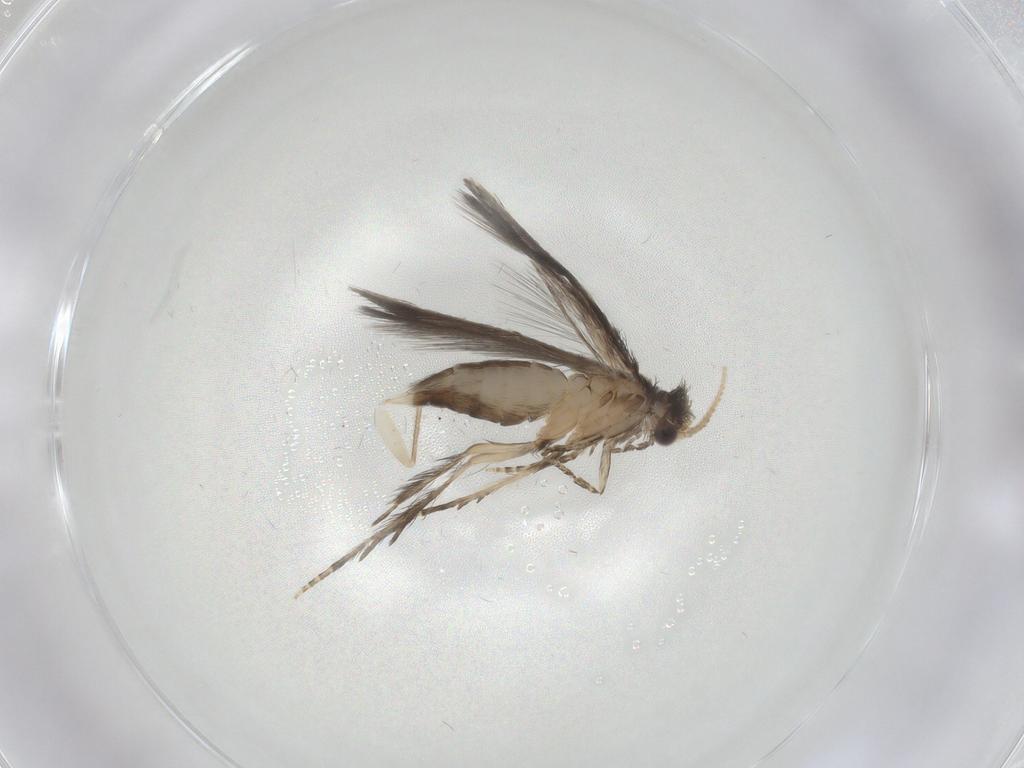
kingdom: Animalia
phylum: Arthropoda
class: Insecta
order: Trichoptera
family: Hydroptilidae
